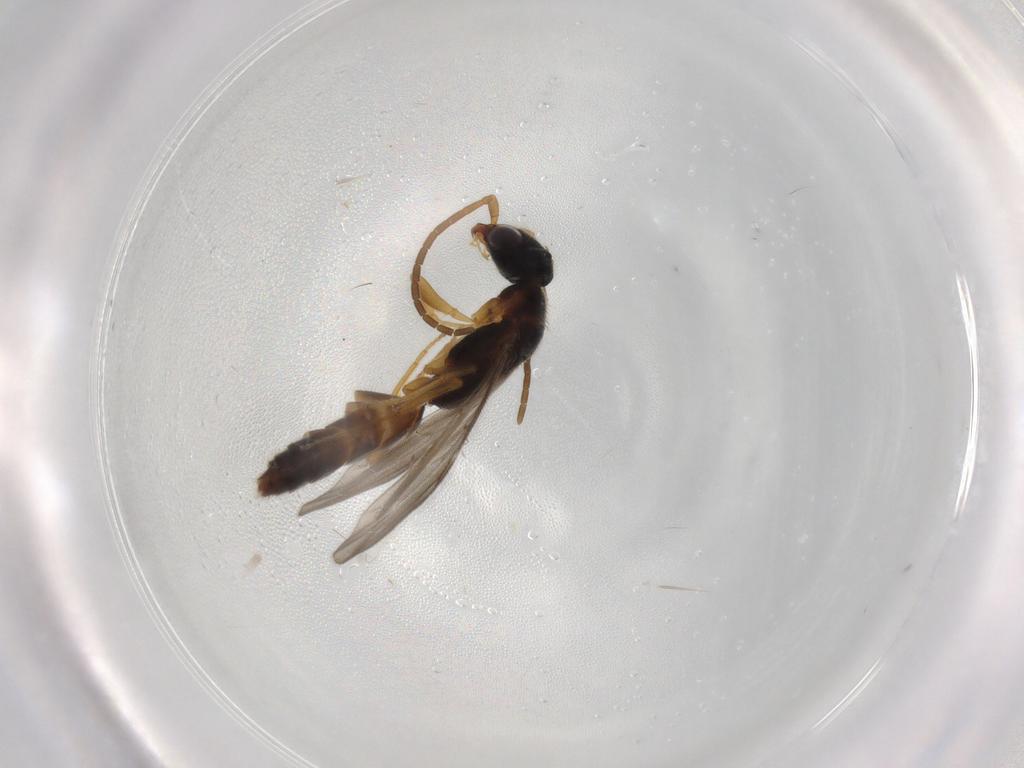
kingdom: Animalia
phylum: Arthropoda
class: Insecta
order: Hymenoptera
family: Bethylidae
